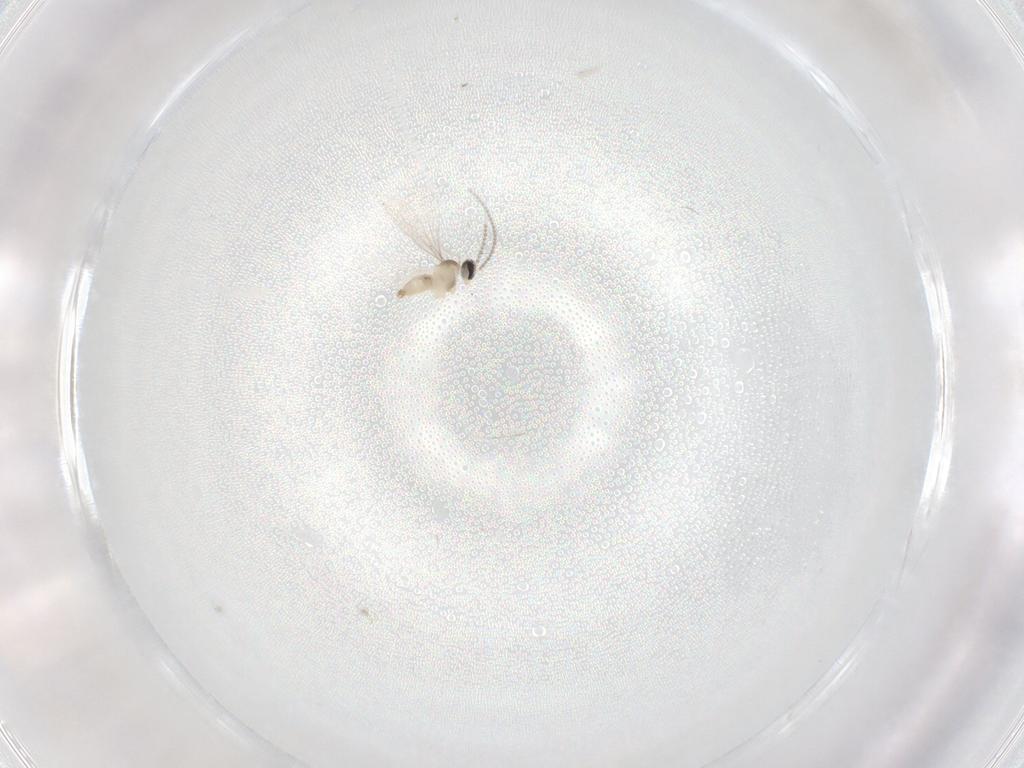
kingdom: Animalia
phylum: Arthropoda
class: Insecta
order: Diptera
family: Cecidomyiidae
